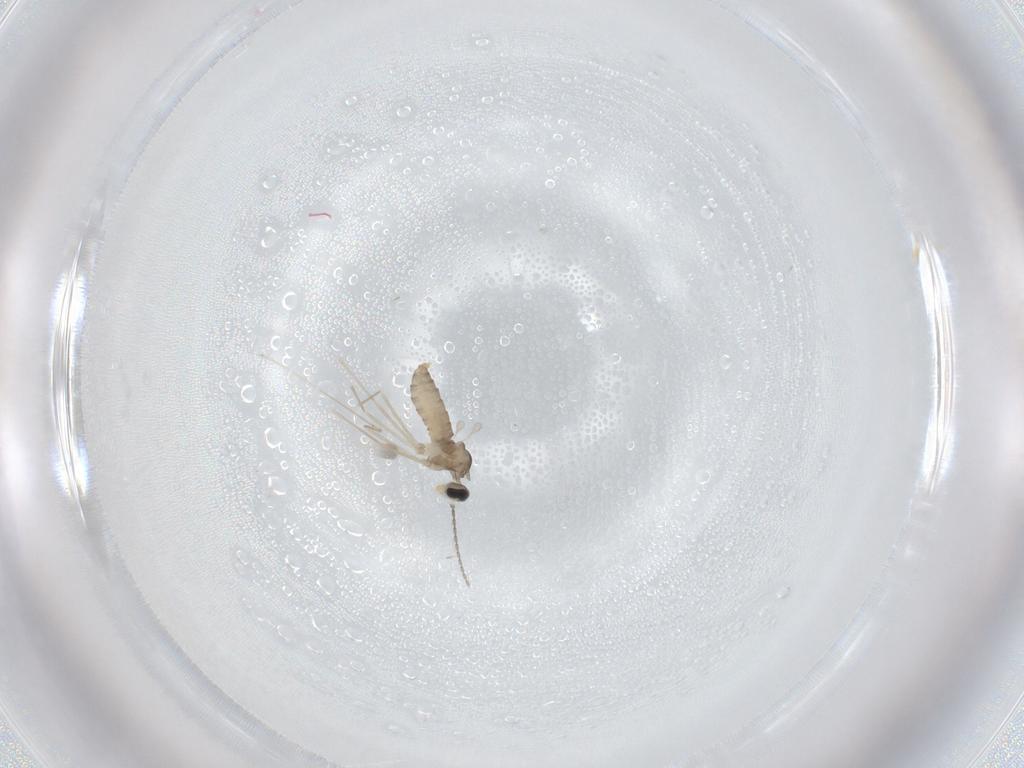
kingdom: Animalia
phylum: Arthropoda
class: Insecta
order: Diptera
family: Cecidomyiidae
